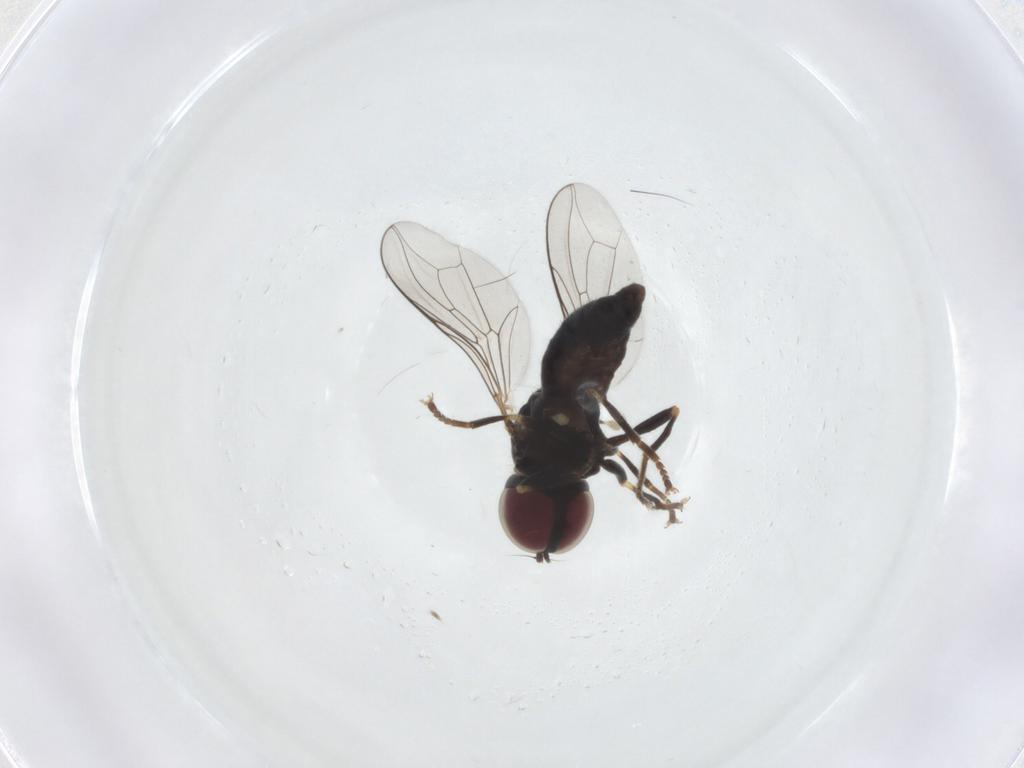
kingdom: Animalia
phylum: Arthropoda
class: Insecta
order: Diptera
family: Pipunculidae
